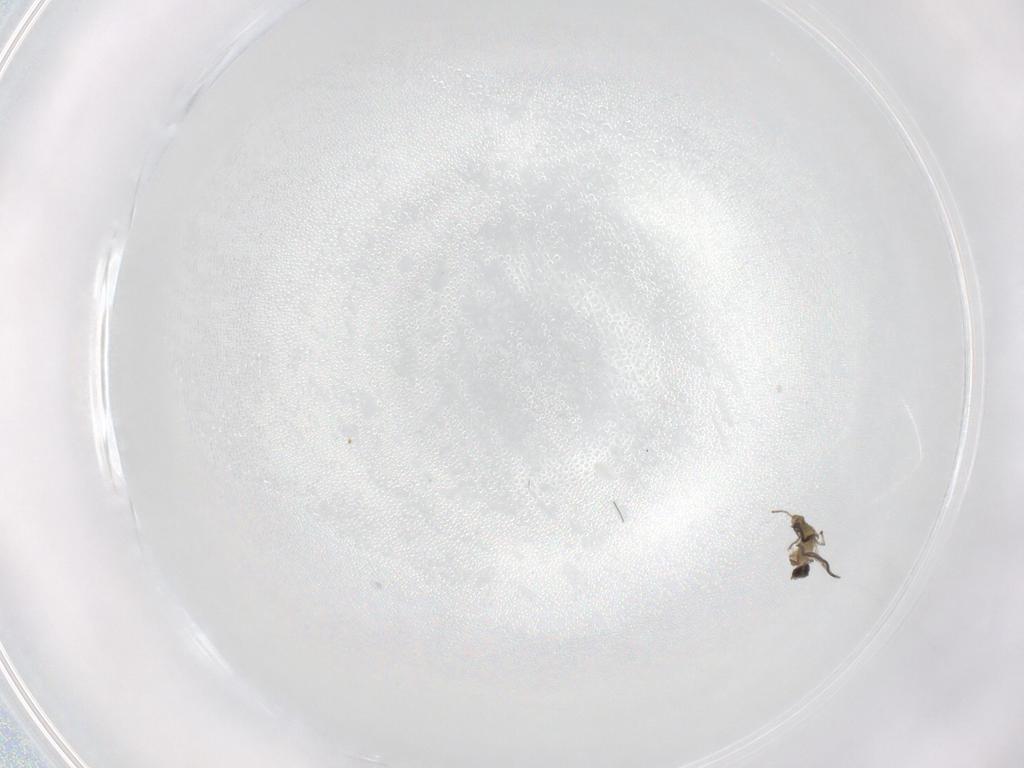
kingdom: Animalia
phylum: Arthropoda
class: Insecta
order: Diptera
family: Cecidomyiidae
